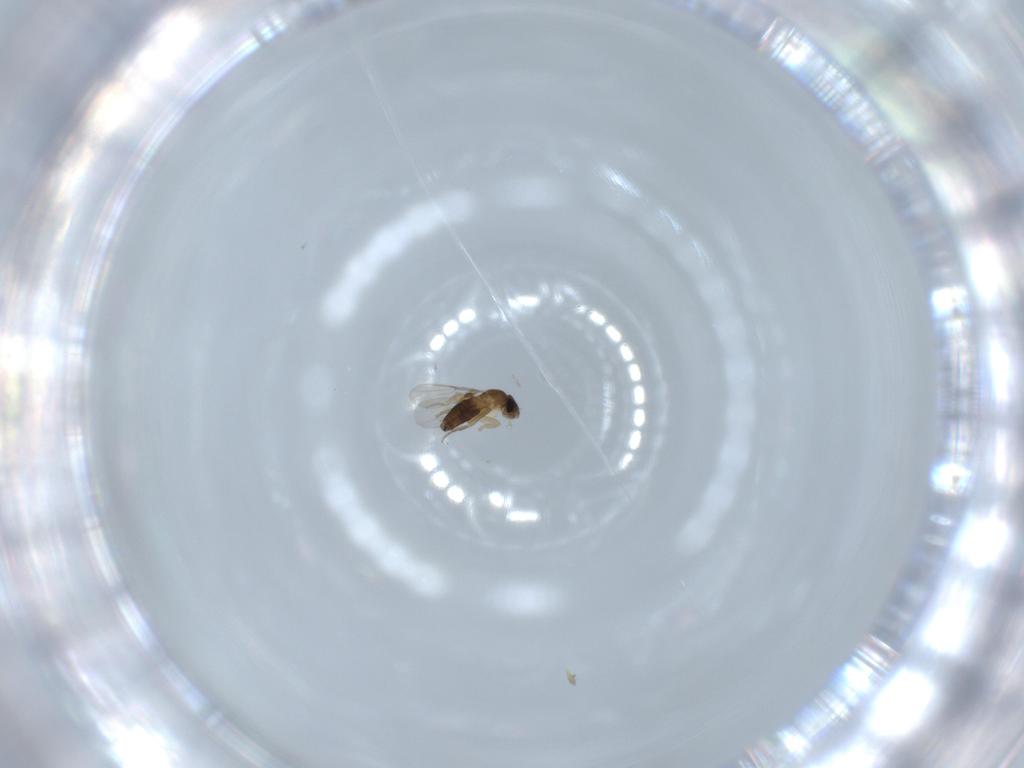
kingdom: Animalia
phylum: Arthropoda
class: Insecta
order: Diptera
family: Phoridae
